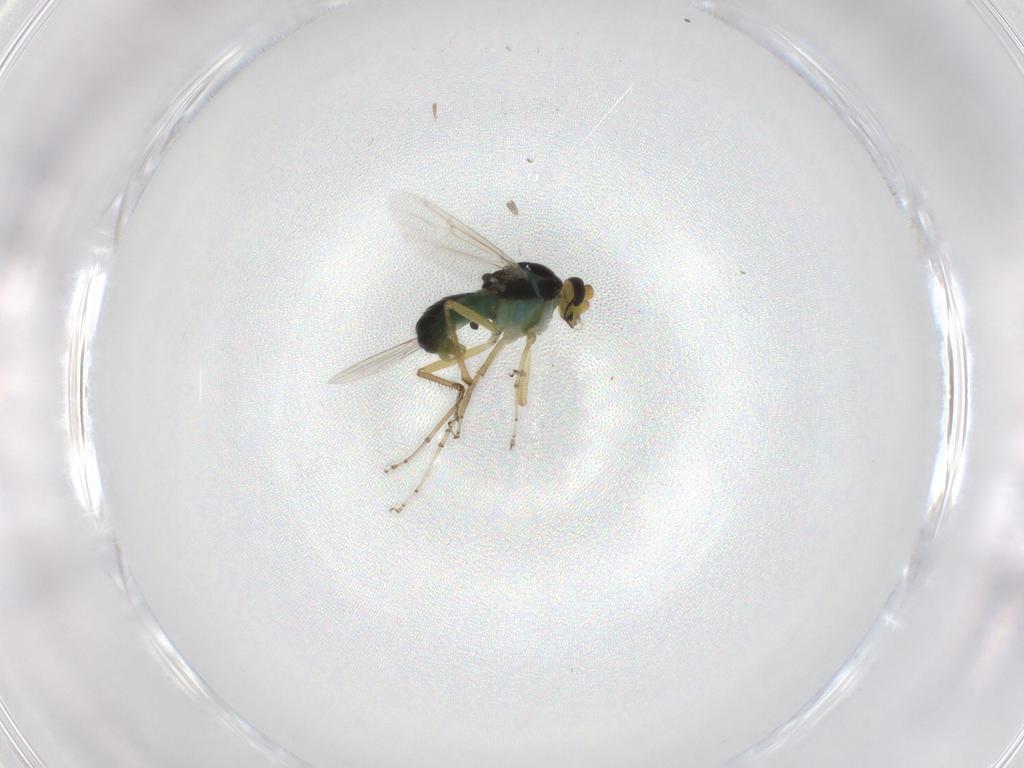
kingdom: Animalia
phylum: Arthropoda
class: Insecta
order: Diptera
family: Ceratopogonidae
